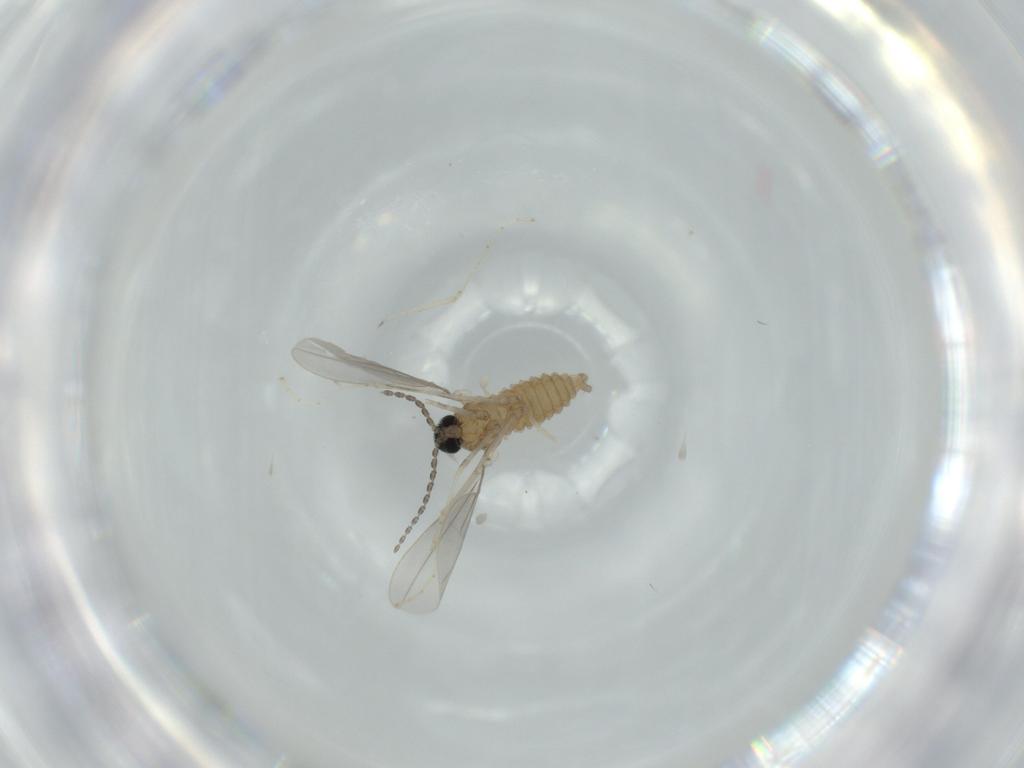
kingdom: Animalia
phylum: Arthropoda
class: Insecta
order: Diptera
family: Cecidomyiidae
